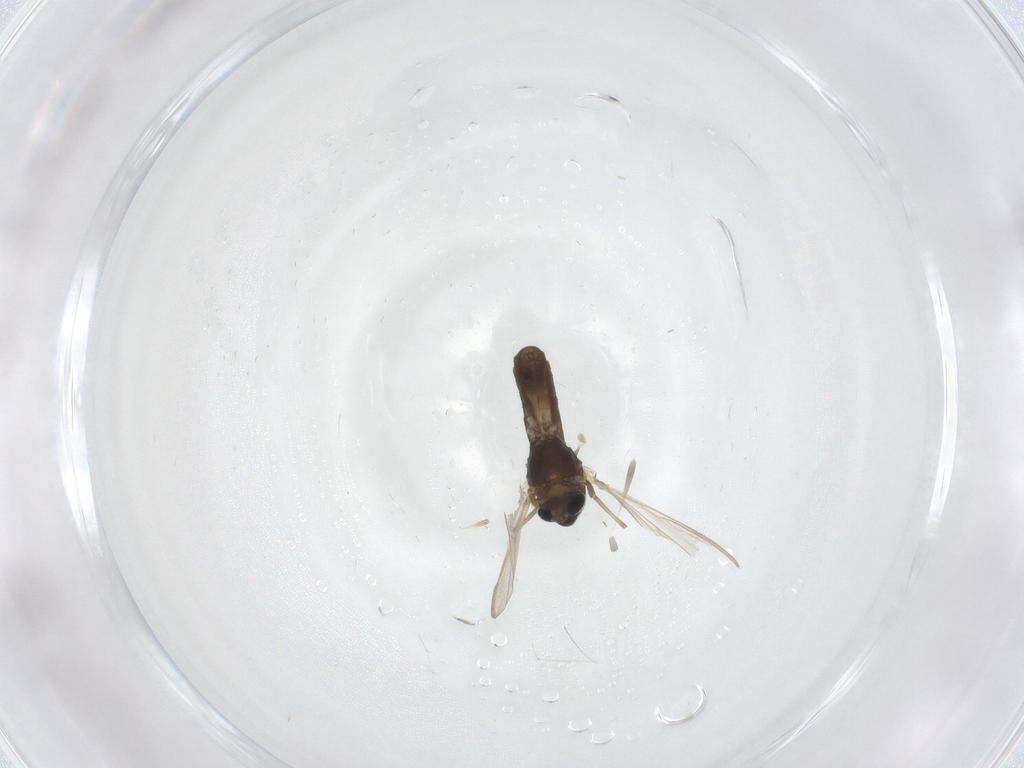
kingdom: Animalia
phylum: Arthropoda
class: Insecta
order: Diptera
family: Chironomidae
